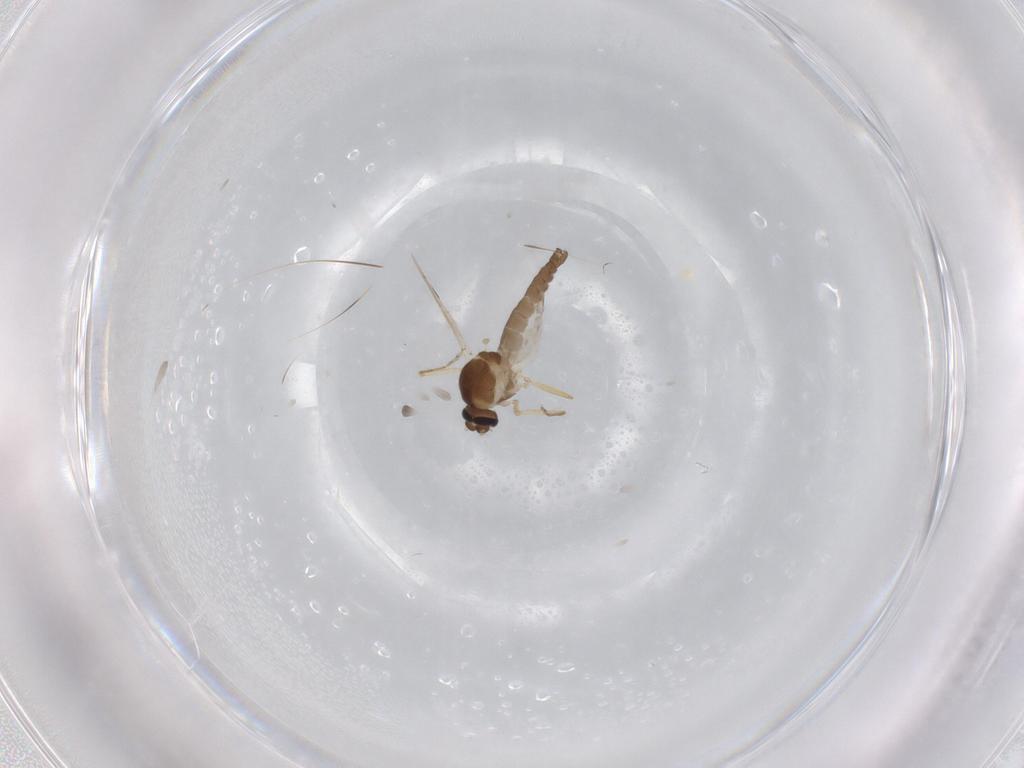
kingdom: Animalia
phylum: Arthropoda
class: Insecta
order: Diptera
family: Ceratopogonidae
